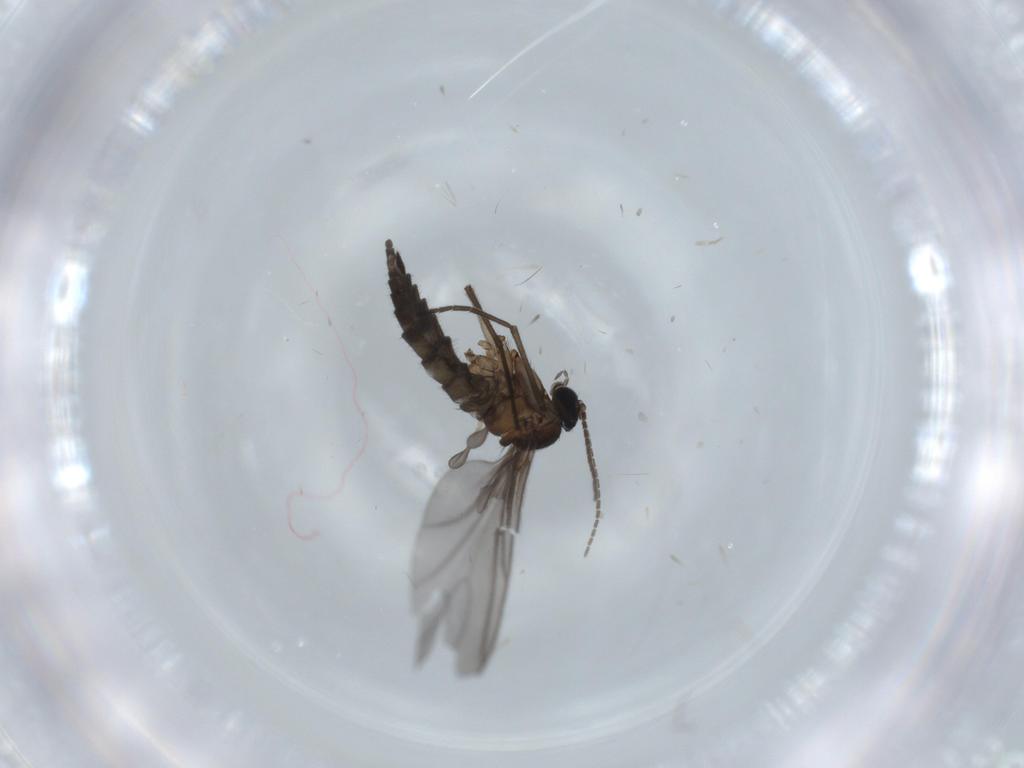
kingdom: Animalia
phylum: Arthropoda
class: Insecta
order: Diptera
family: Sciaridae
